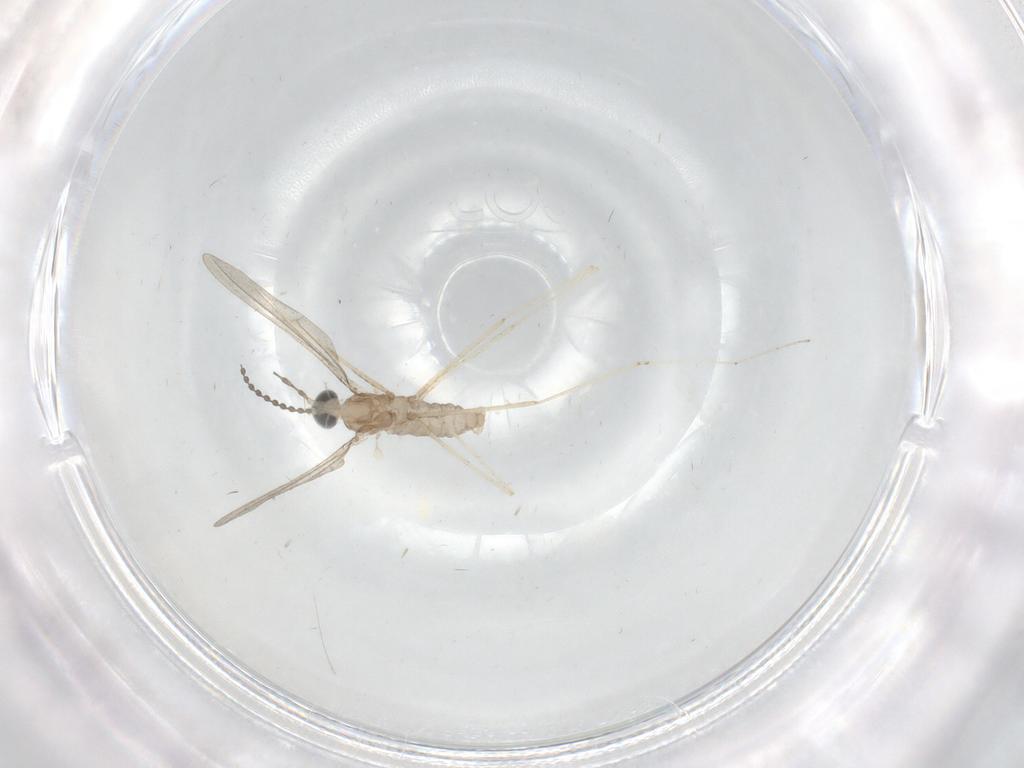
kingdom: Animalia
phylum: Arthropoda
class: Insecta
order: Diptera
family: Cecidomyiidae
